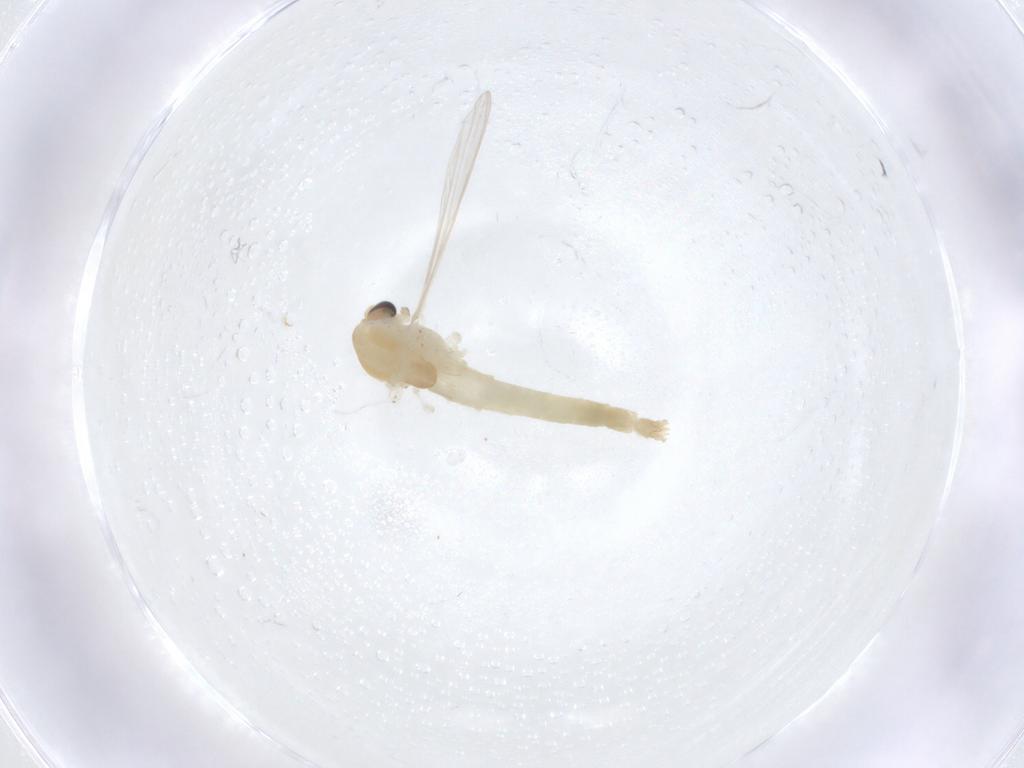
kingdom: Animalia
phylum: Arthropoda
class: Insecta
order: Diptera
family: Chironomidae
